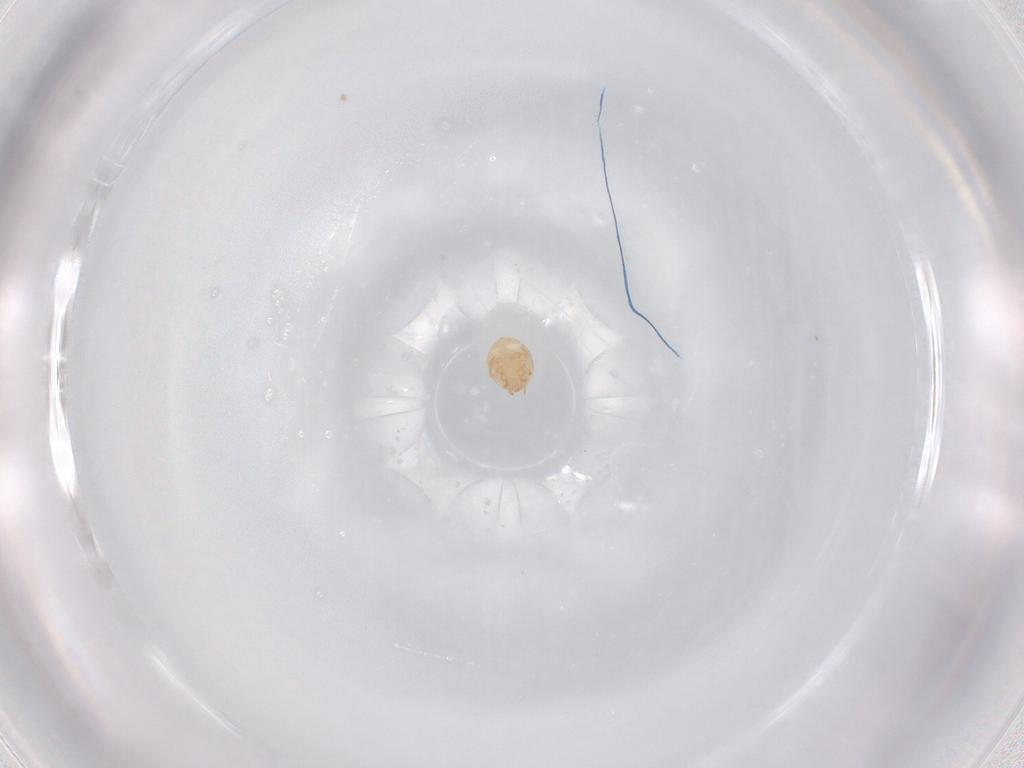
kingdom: Animalia
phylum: Arthropoda
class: Arachnida
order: Mesostigmata
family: Trematuridae
